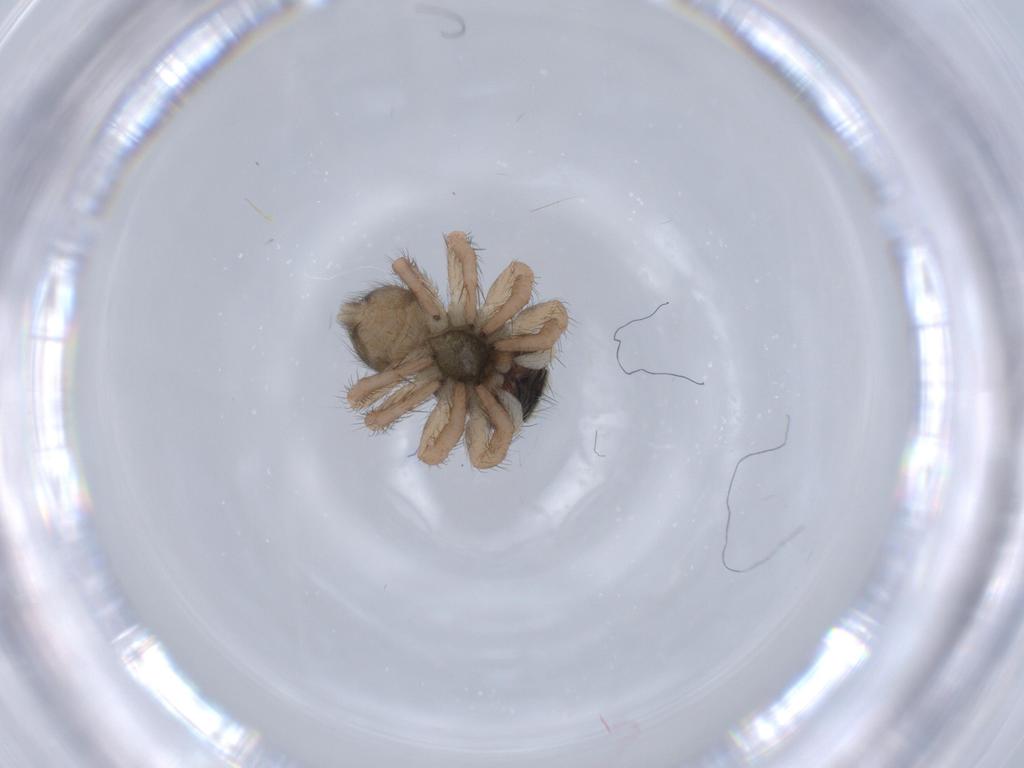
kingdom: Animalia
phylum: Arthropoda
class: Arachnida
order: Araneae
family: Salticidae
